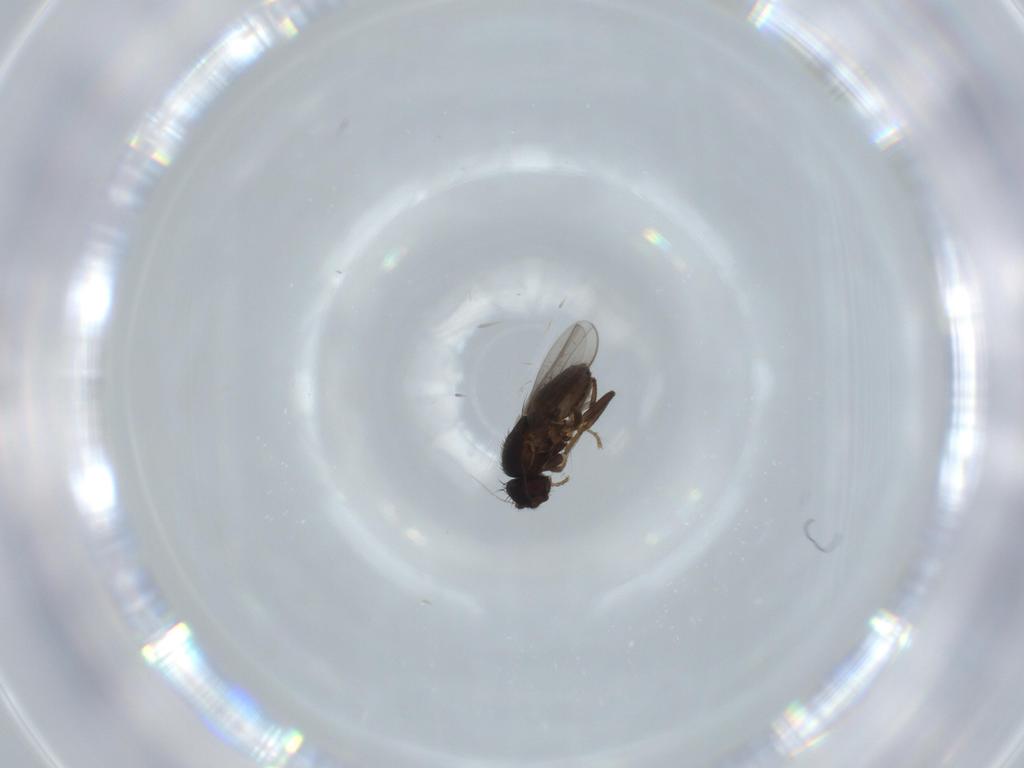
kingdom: Animalia
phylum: Arthropoda
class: Insecta
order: Diptera
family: Sphaeroceridae
